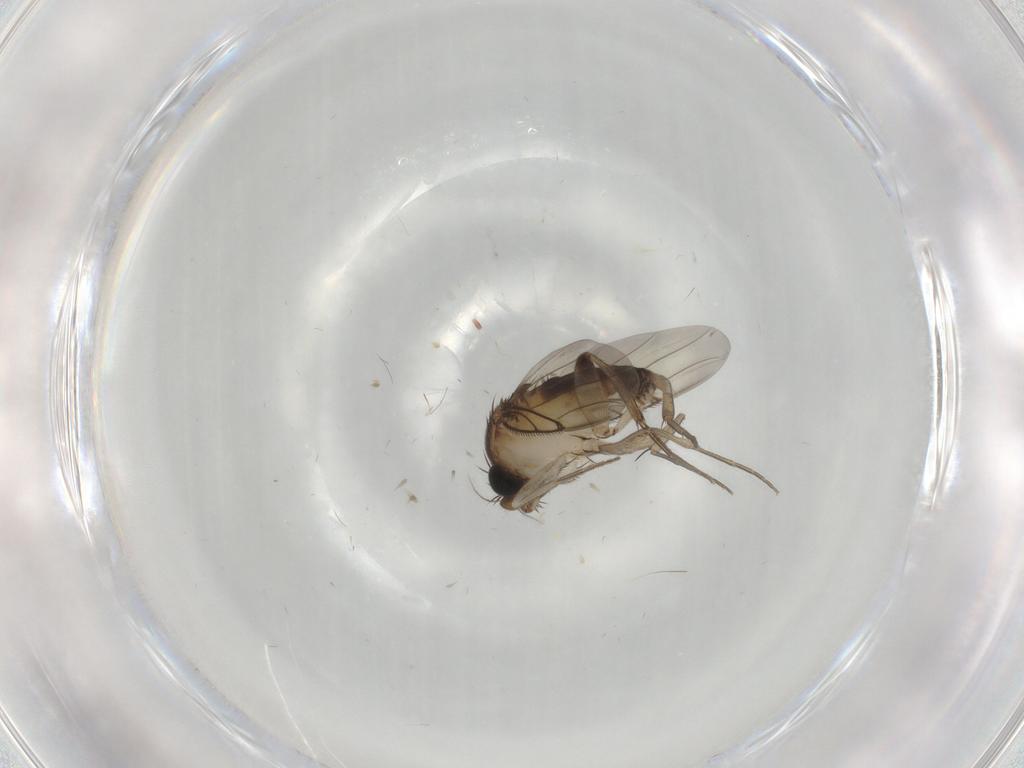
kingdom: Animalia
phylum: Arthropoda
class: Insecta
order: Diptera
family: Phoridae
